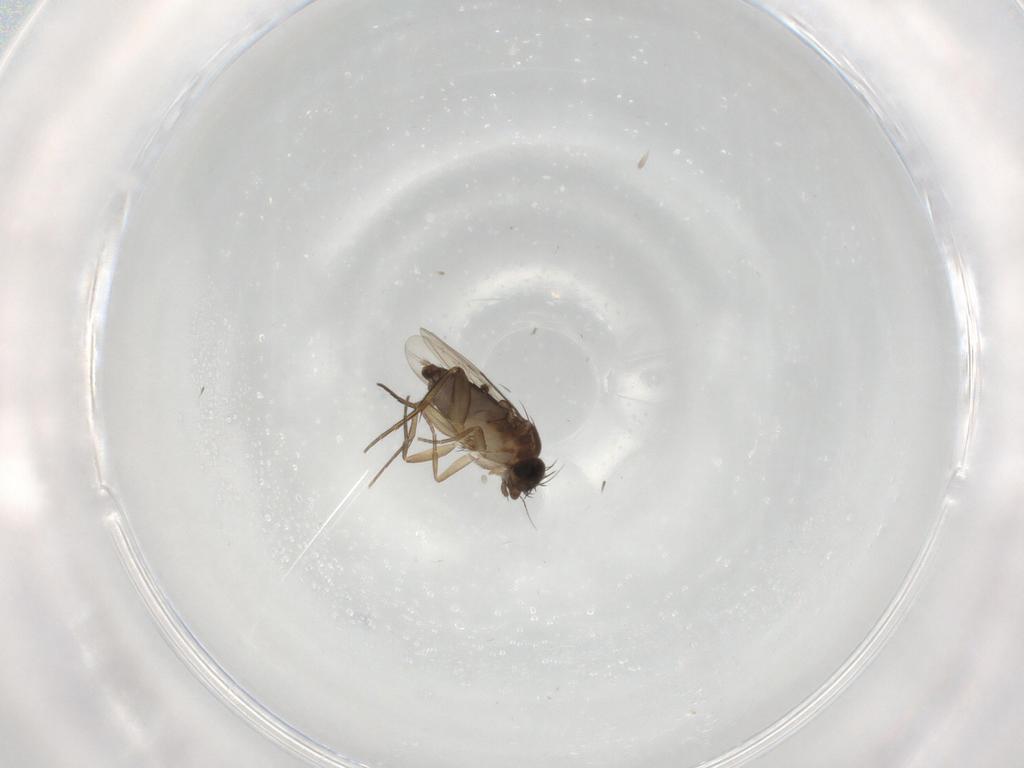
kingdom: Animalia
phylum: Arthropoda
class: Insecta
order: Diptera
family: Phoridae
